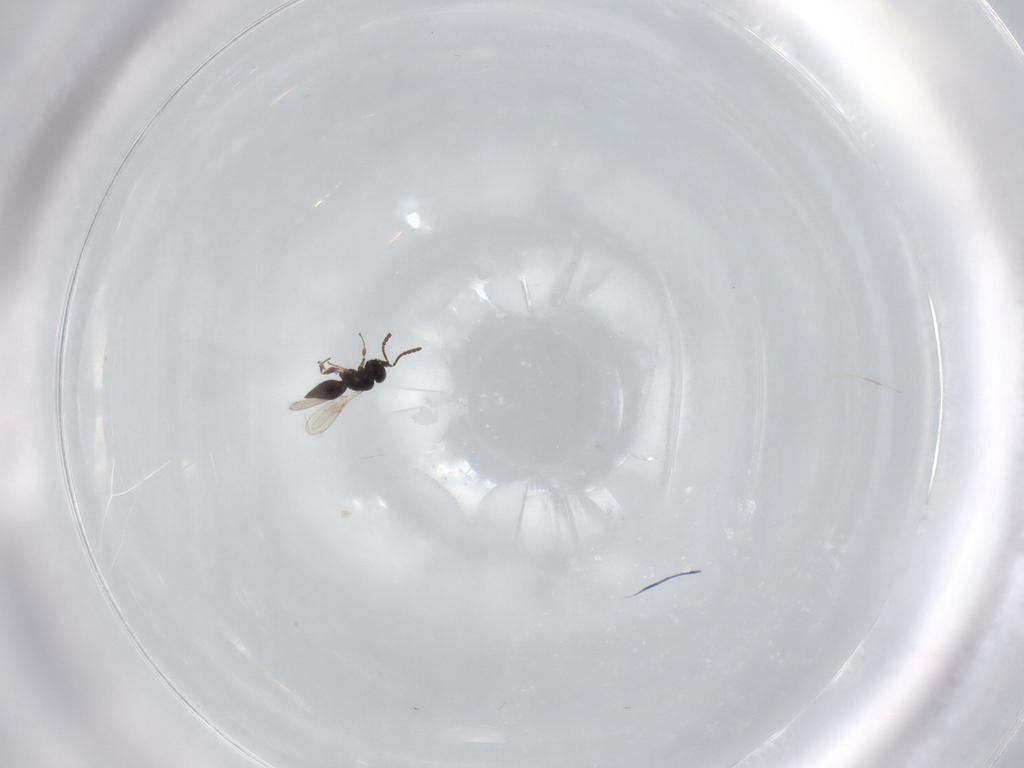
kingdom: Animalia
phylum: Arthropoda
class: Insecta
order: Hymenoptera
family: Scelionidae
